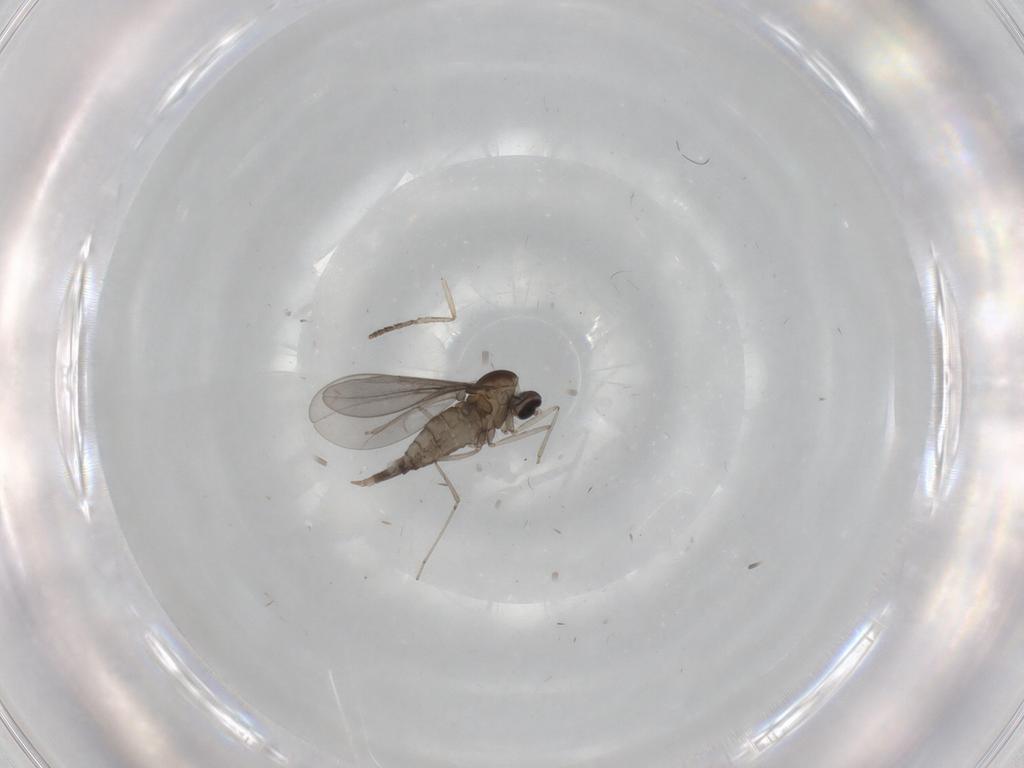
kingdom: Animalia
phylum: Arthropoda
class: Insecta
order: Diptera
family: Cecidomyiidae
